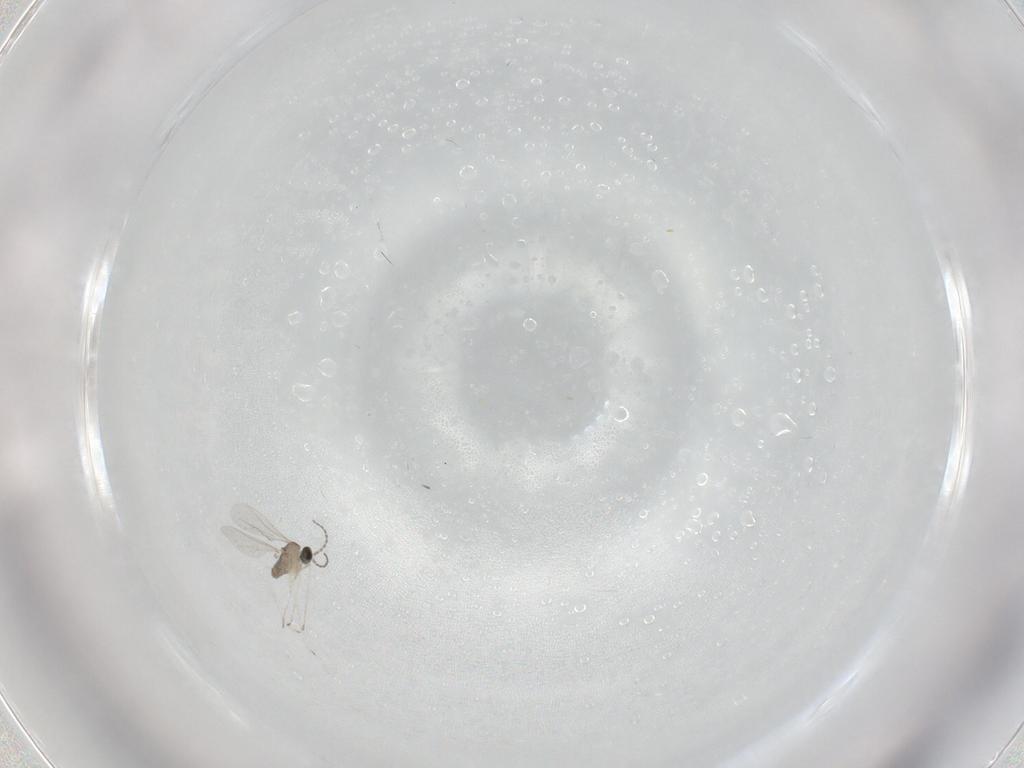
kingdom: Animalia
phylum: Arthropoda
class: Insecta
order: Diptera
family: Cecidomyiidae
